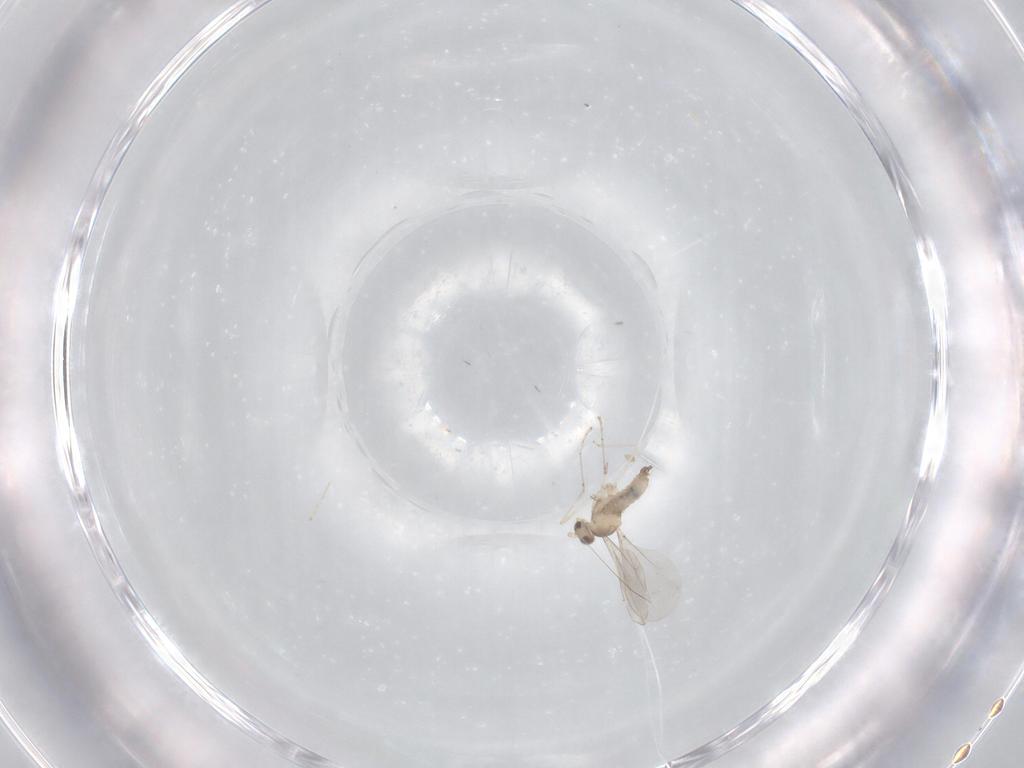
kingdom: Animalia
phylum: Arthropoda
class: Insecta
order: Diptera
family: Cecidomyiidae
